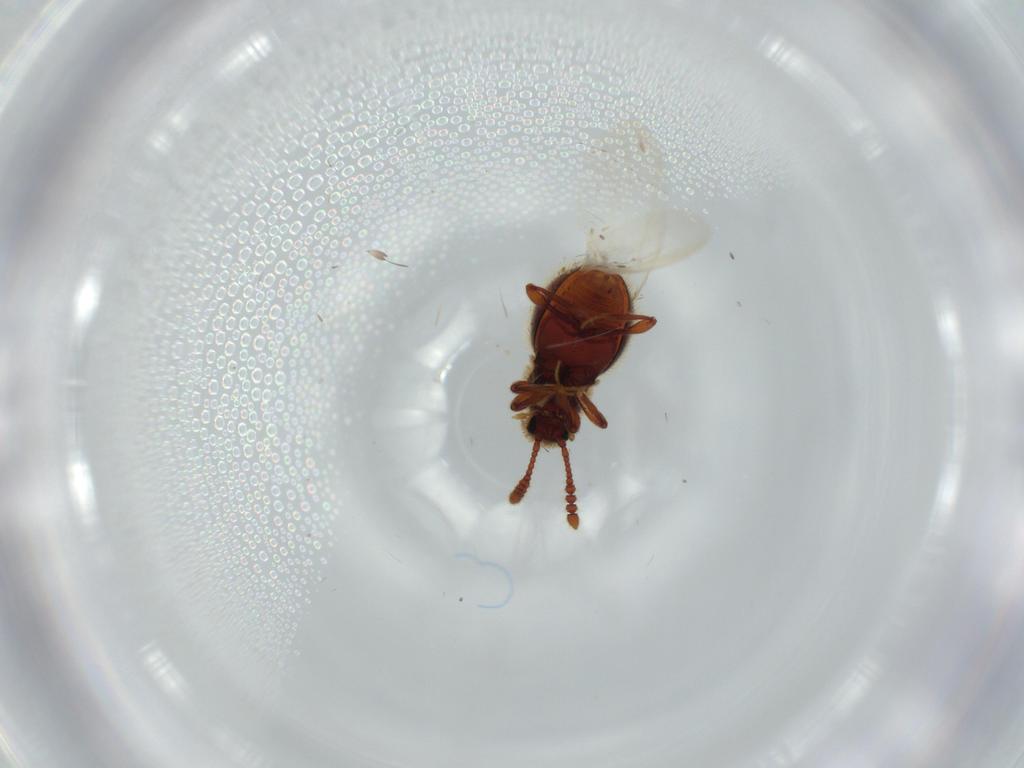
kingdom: Animalia
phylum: Arthropoda
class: Insecta
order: Coleoptera
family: Staphylinidae
